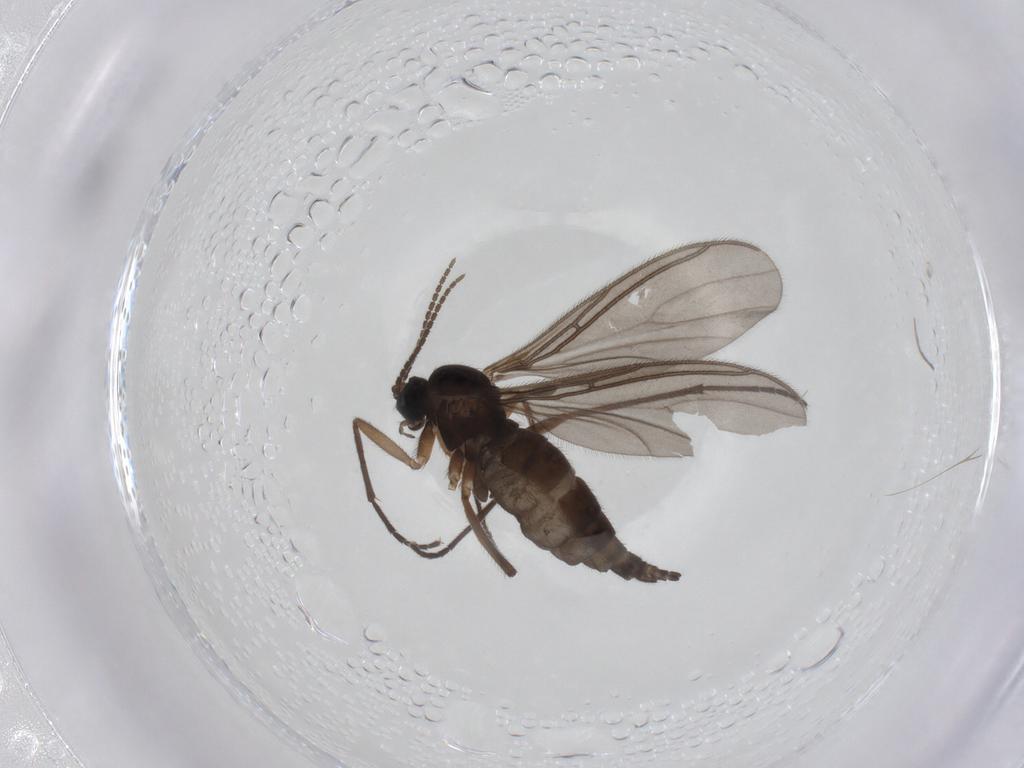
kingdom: Animalia
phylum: Arthropoda
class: Insecta
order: Diptera
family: Sciaridae
